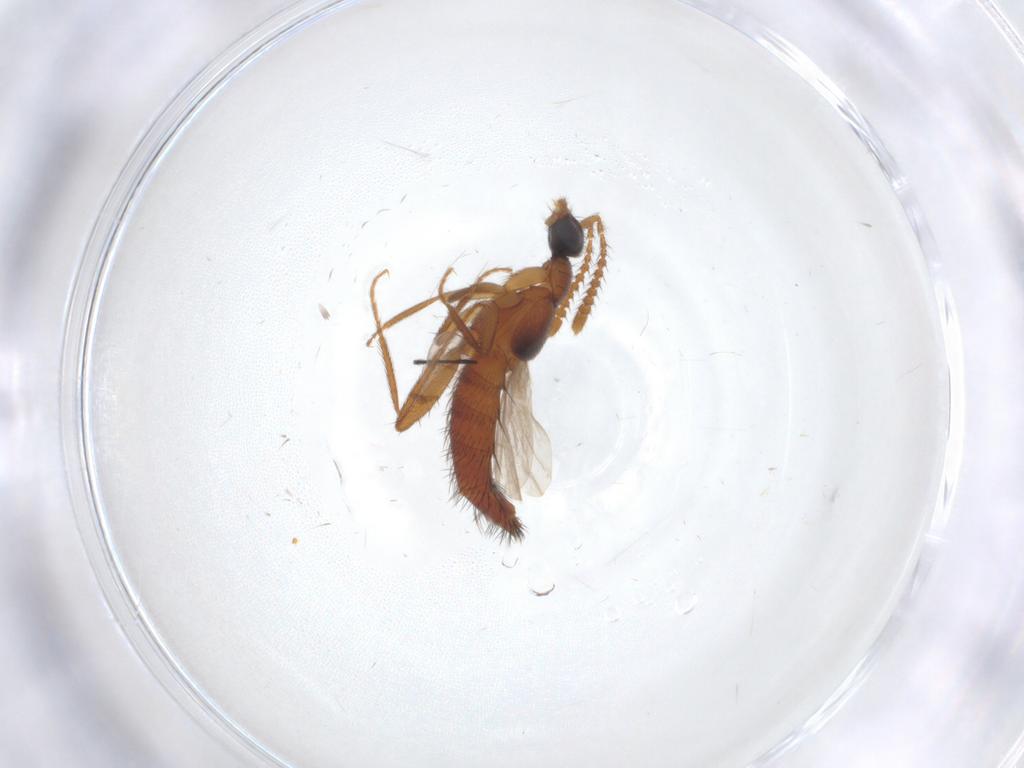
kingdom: Animalia
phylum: Arthropoda
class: Insecta
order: Coleoptera
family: Staphylinidae
